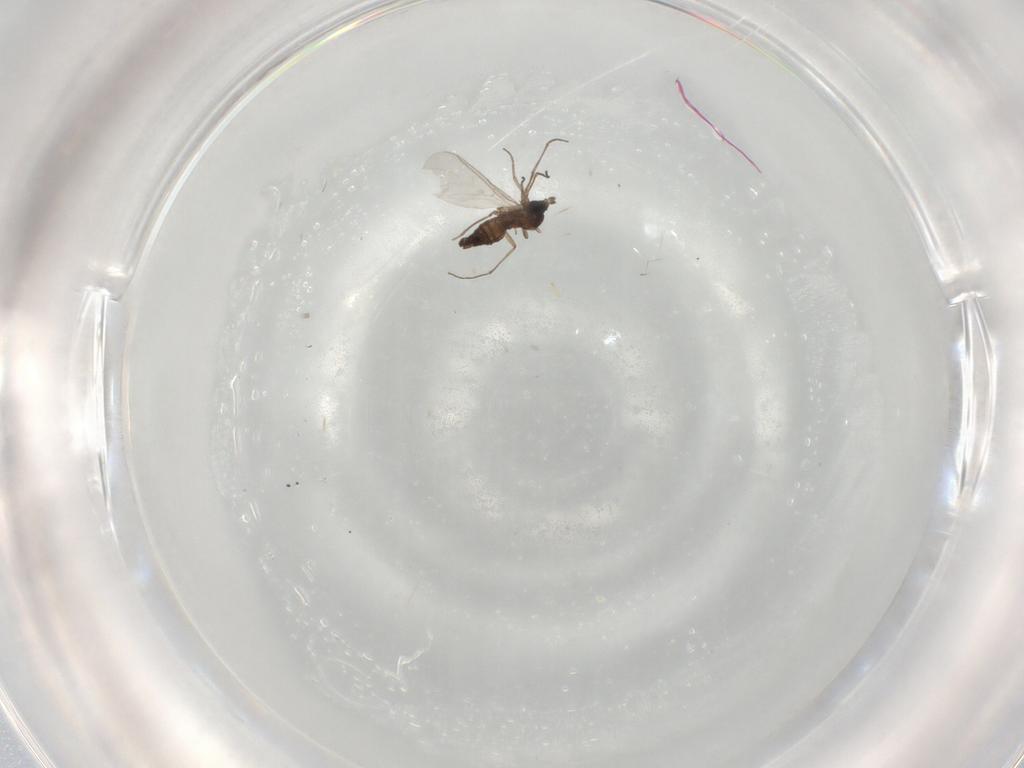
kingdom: Animalia
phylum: Arthropoda
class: Insecta
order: Diptera
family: Sciaridae
